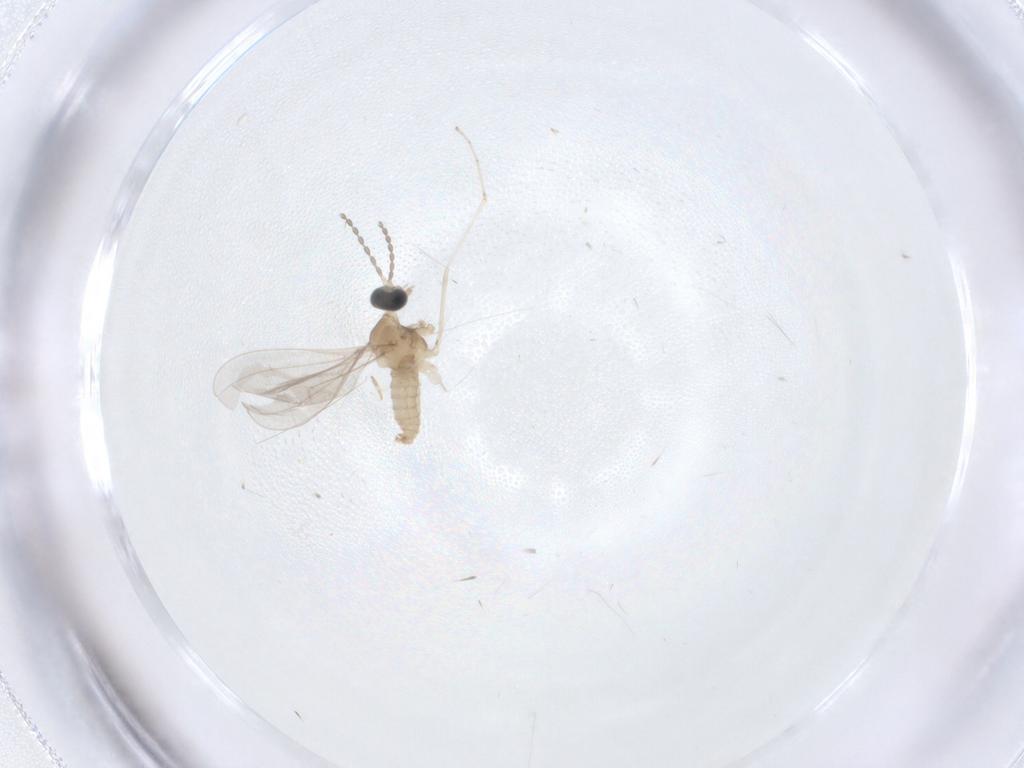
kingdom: Animalia
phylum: Arthropoda
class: Insecta
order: Diptera
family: Cecidomyiidae
